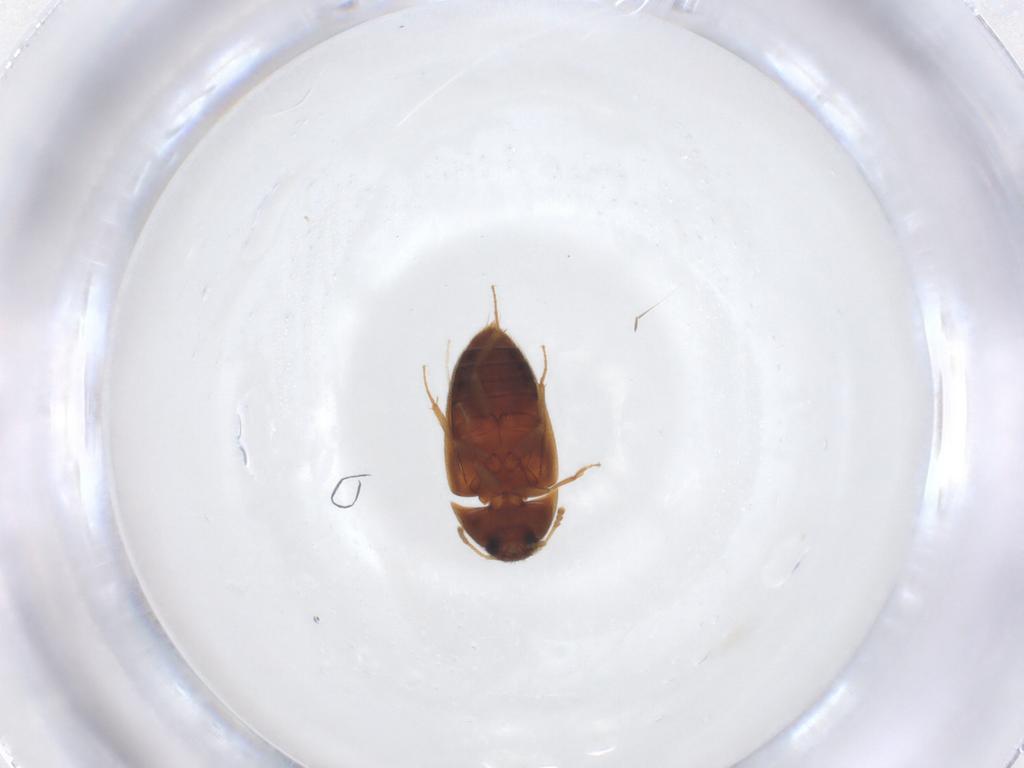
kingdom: Animalia
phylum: Arthropoda
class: Insecta
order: Coleoptera
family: Mycetophagidae
